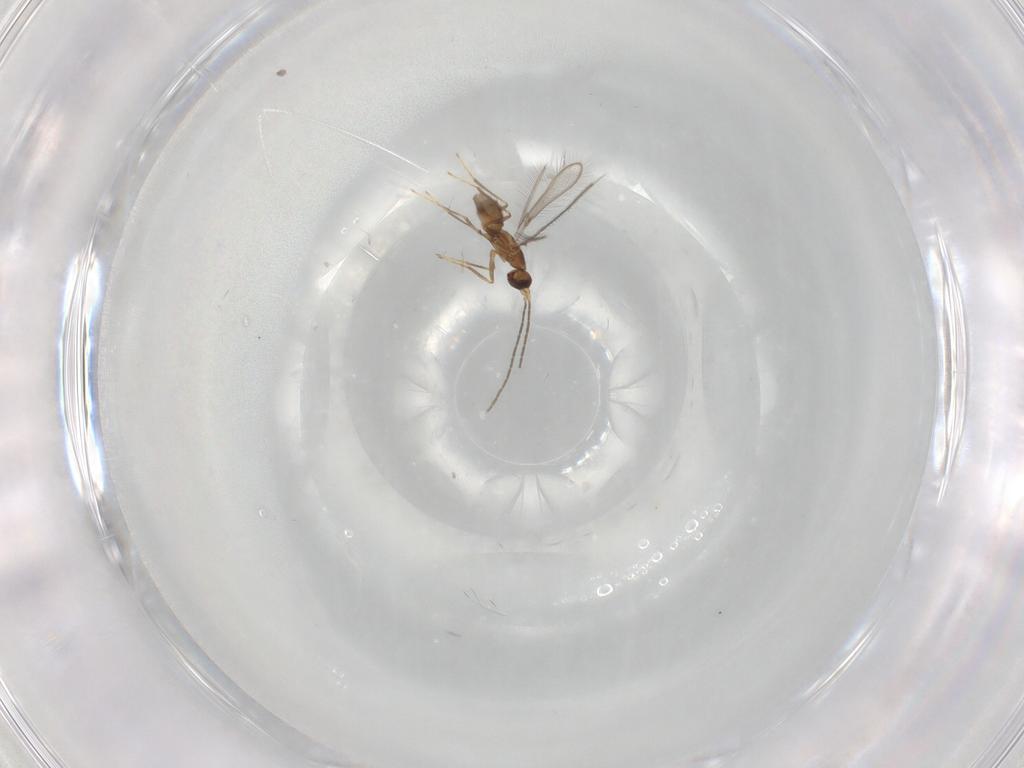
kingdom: Animalia
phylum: Arthropoda
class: Insecta
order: Hymenoptera
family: Mymaridae
